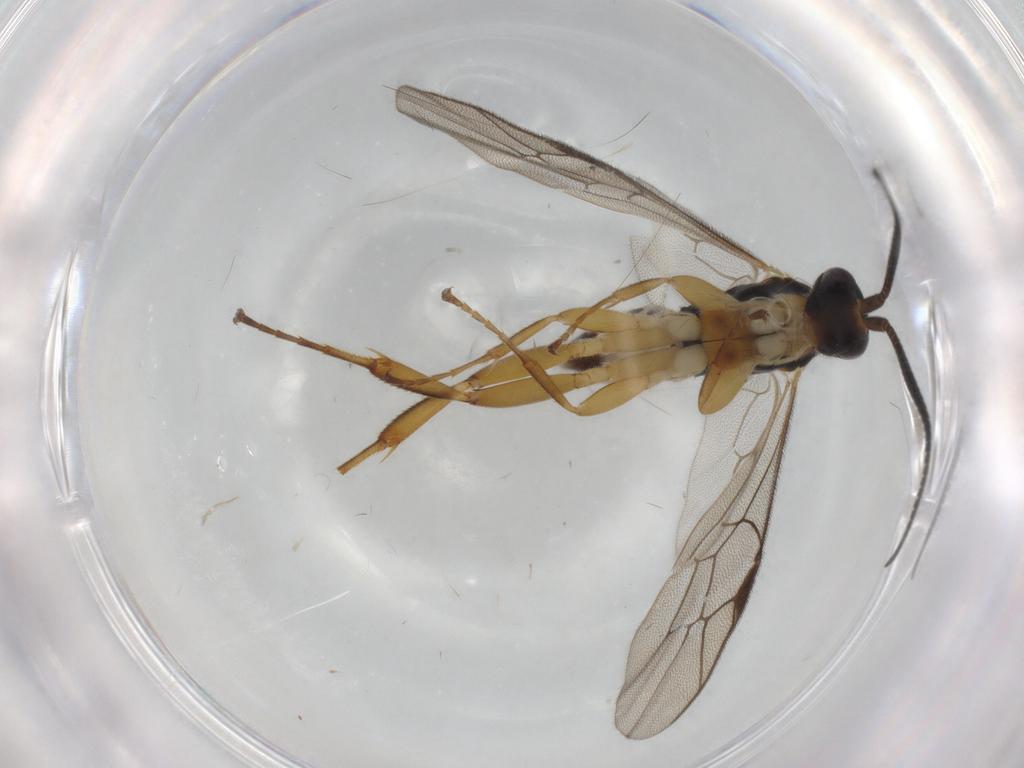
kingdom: Animalia
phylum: Arthropoda
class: Insecta
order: Hymenoptera
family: Ichneumonidae
